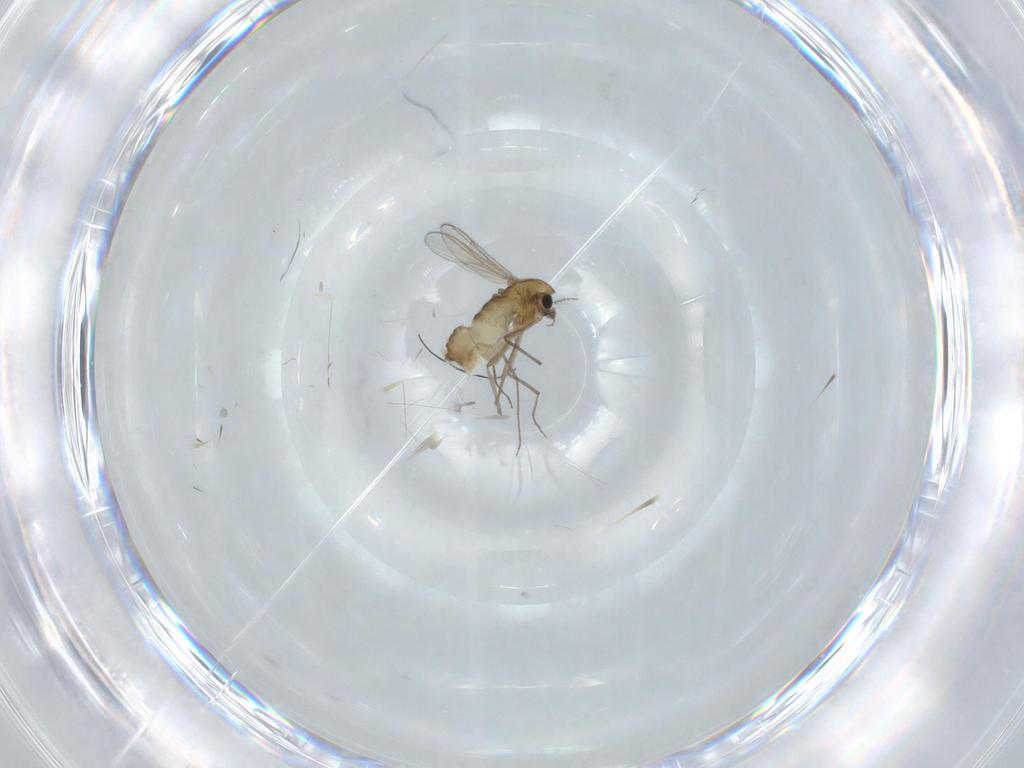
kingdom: Animalia
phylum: Arthropoda
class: Insecta
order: Diptera
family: Chironomidae
